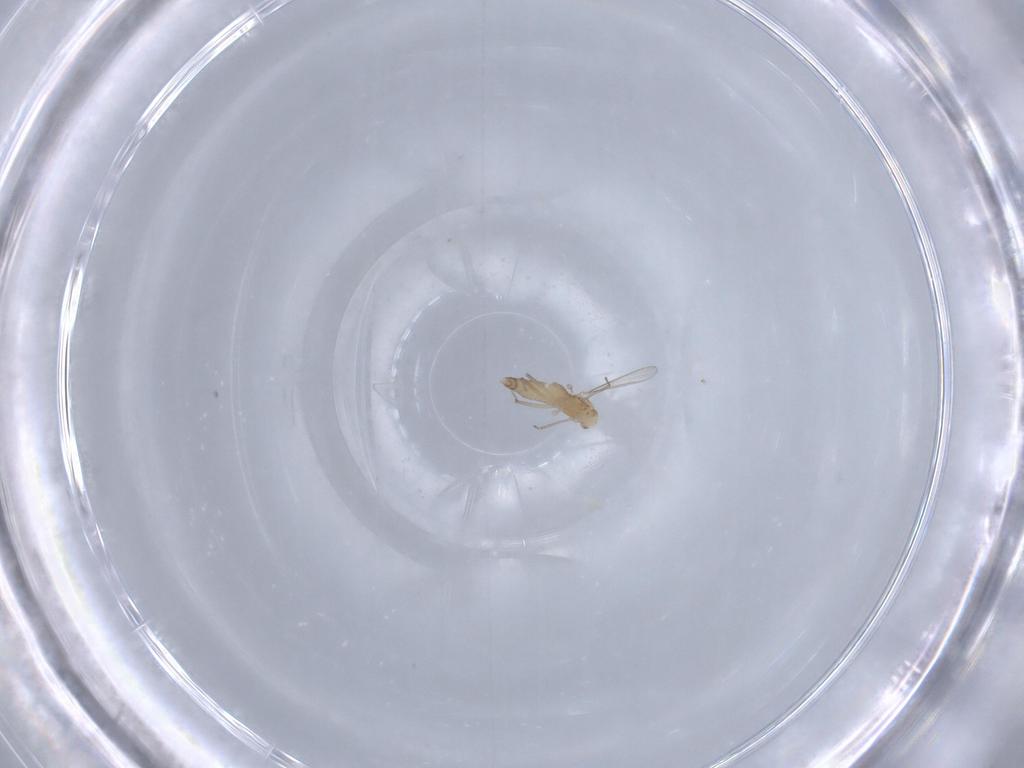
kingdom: Animalia
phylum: Arthropoda
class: Insecta
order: Diptera
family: Chironomidae
